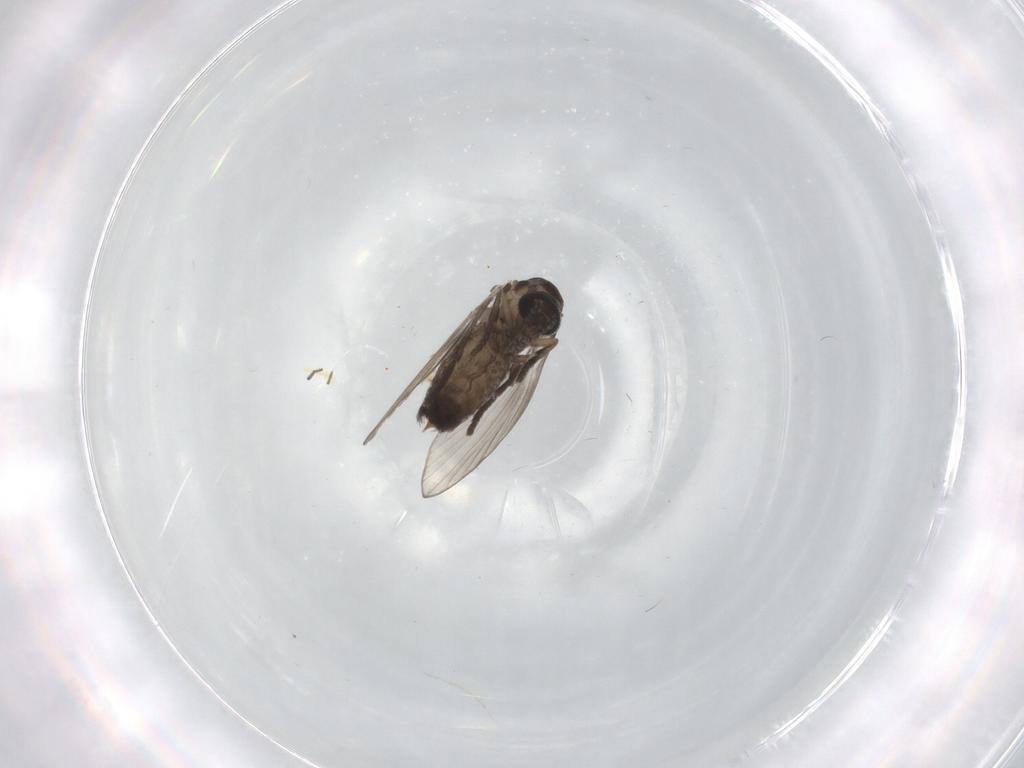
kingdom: Animalia
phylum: Arthropoda
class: Insecta
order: Diptera
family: Psychodidae
